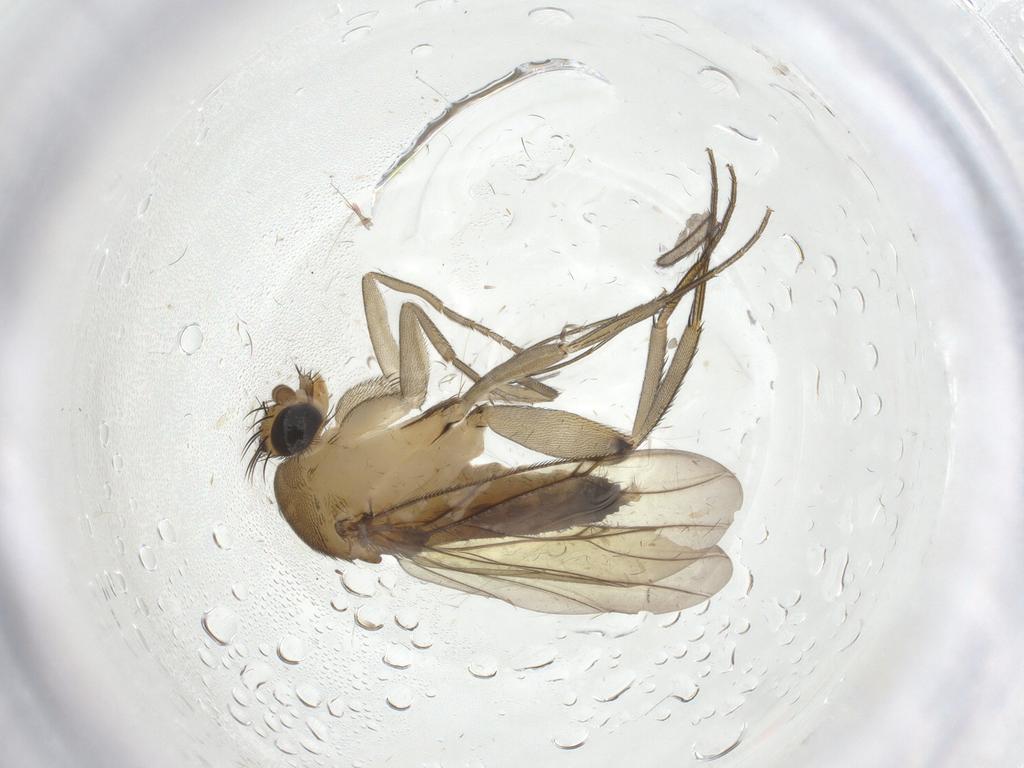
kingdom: Animalia
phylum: Arthropoda
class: Insecta
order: Diptera
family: Phoridae
